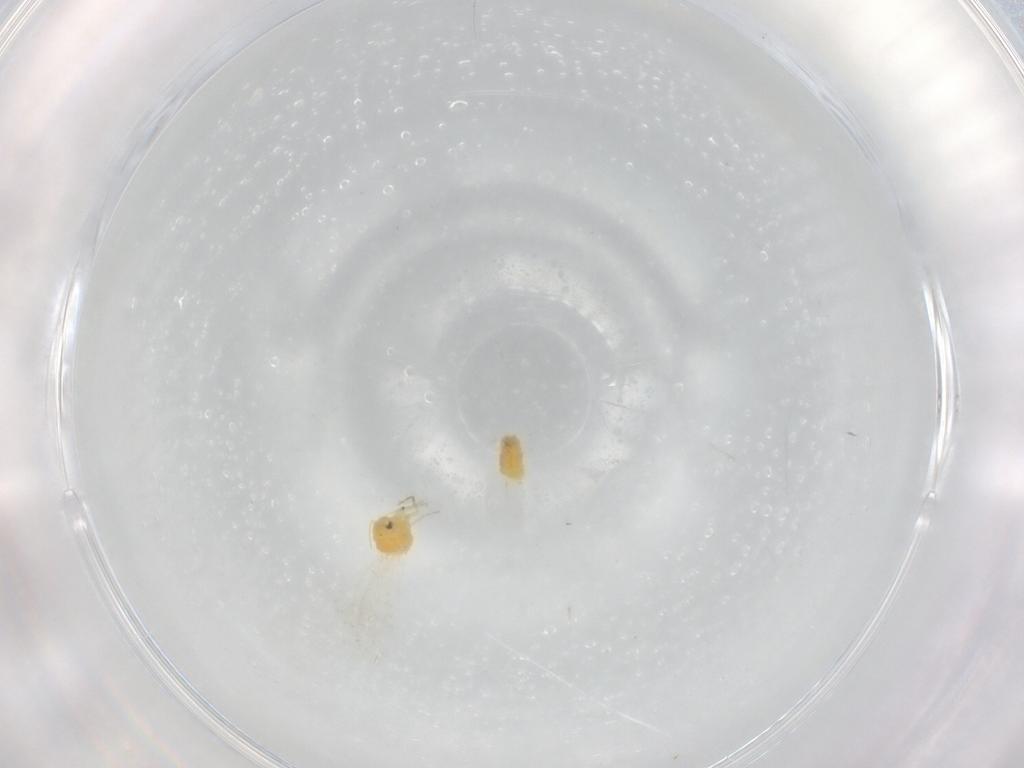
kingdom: Animalia
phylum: Arthropoda
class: Insecta
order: Hemiptera
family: Aleyrodidae
